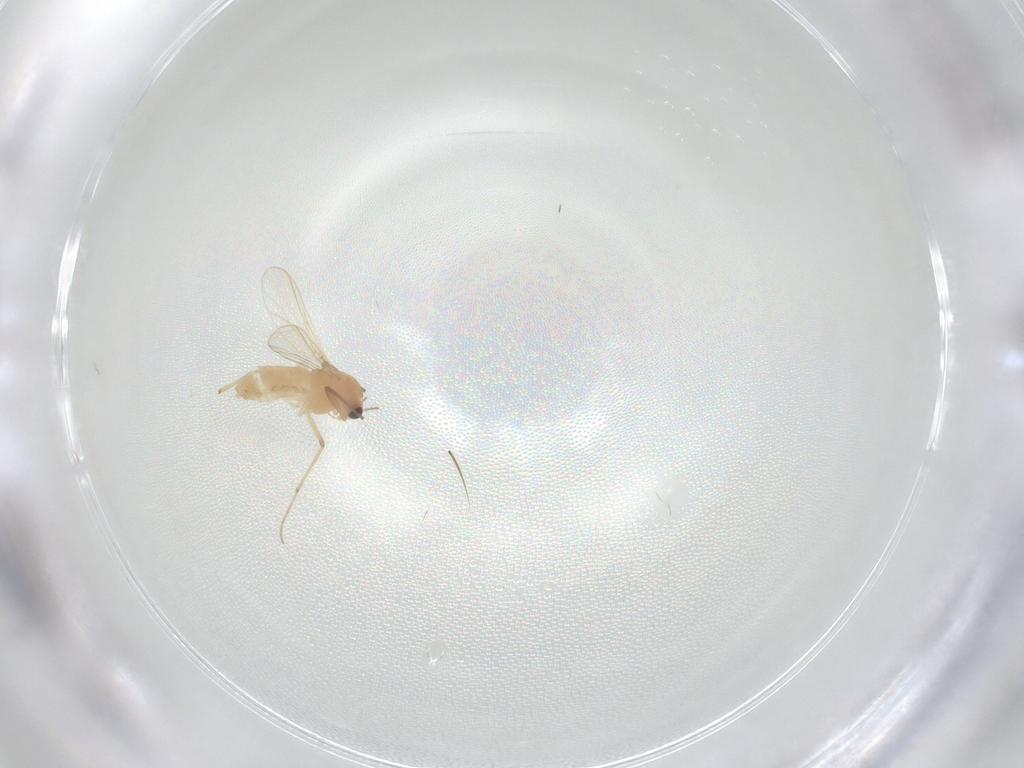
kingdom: Animalia
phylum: Arthropoda
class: Insecta
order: Diptera
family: Chironomidae
